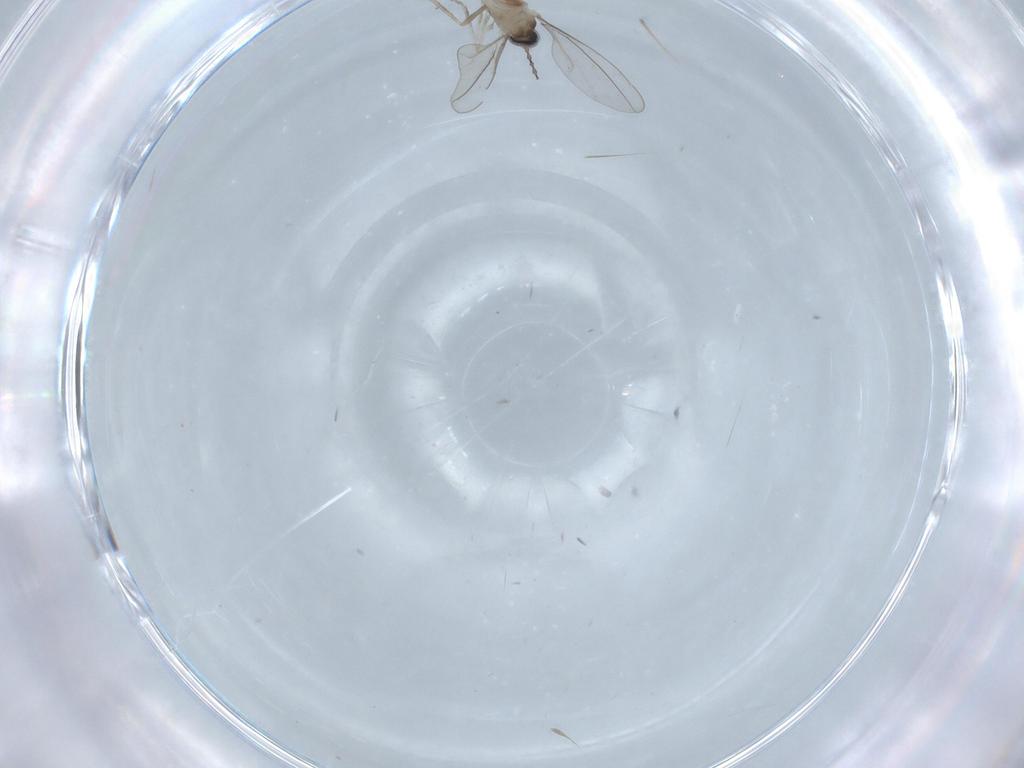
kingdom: Animalia
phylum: Arthropoda
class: Insecta
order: Diptera
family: Cecidomyiidae
